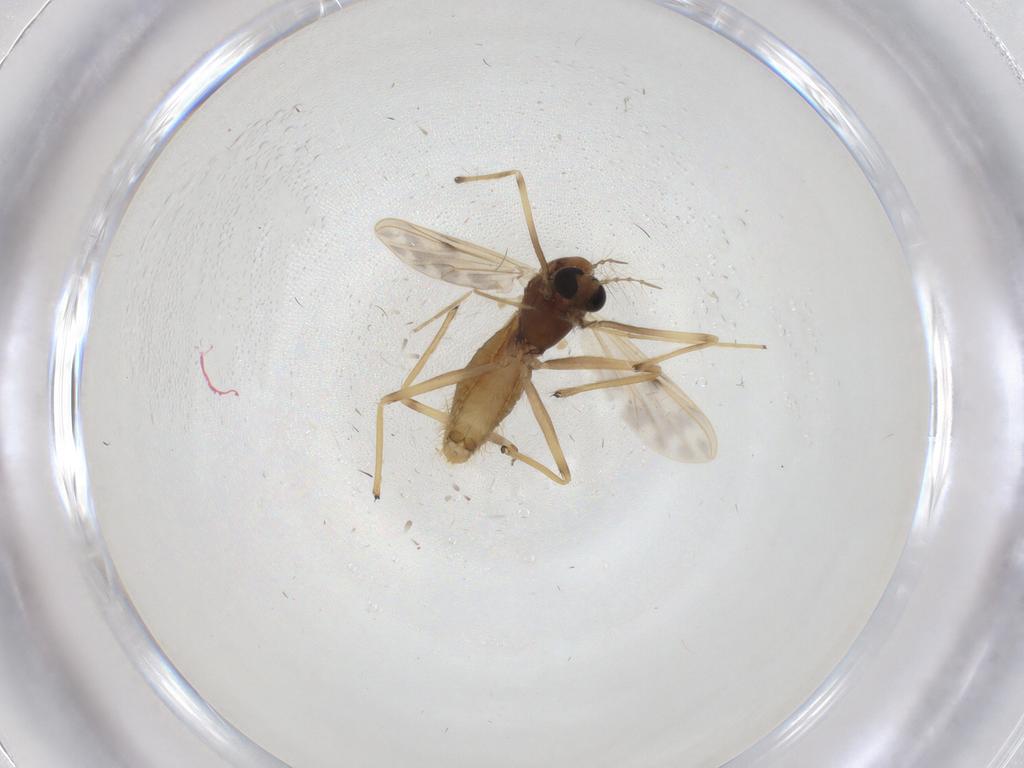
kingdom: Animalia
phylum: Arthropoda
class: Insecta
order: Diptera
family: Chironomidae
